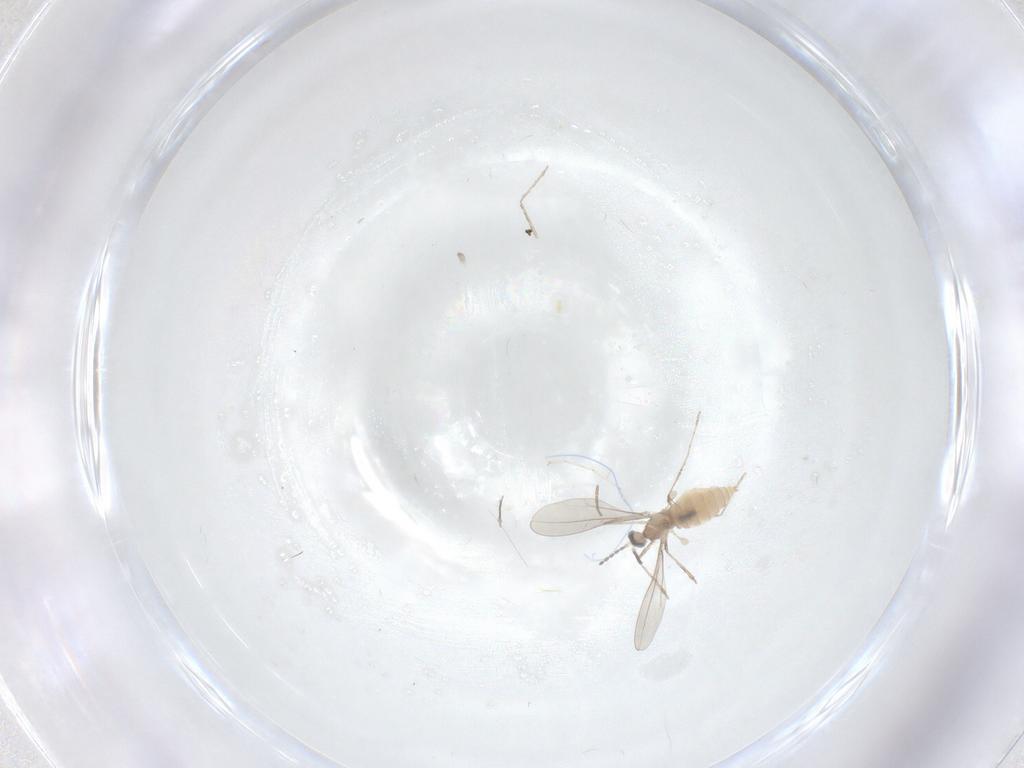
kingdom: Animalia
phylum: Arthropoda
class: Insecta
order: Diptera
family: Cecidomyiidae
